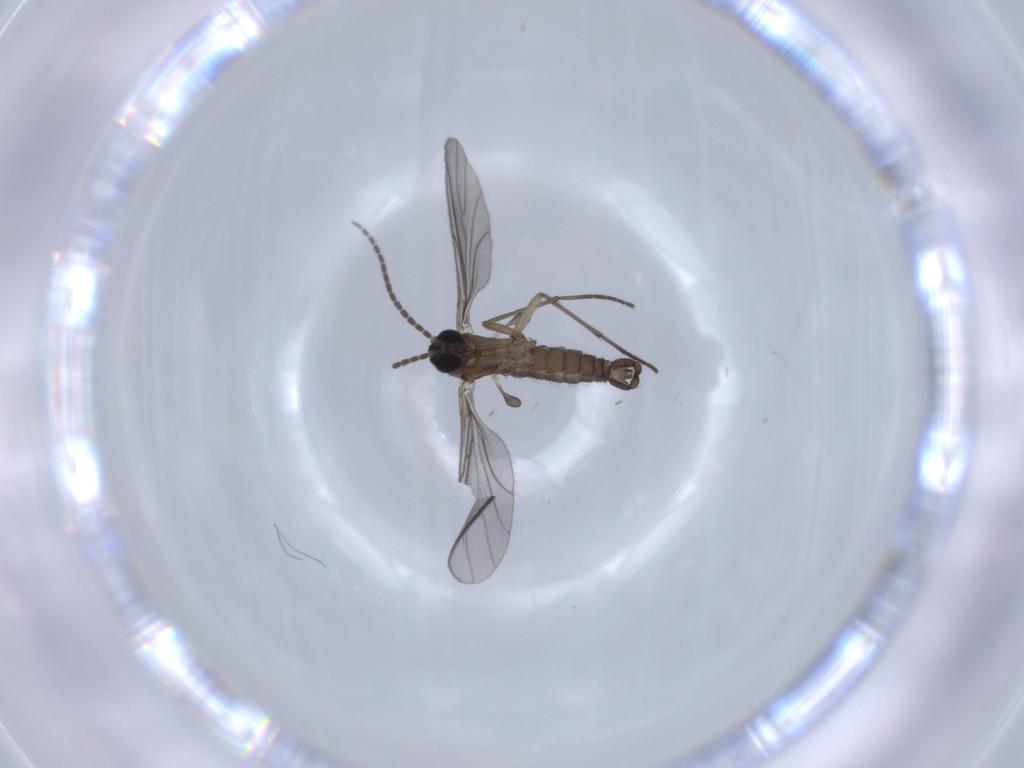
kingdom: Animalia
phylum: Arthropoda
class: Insecta
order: Diptera
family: Sciaridae
